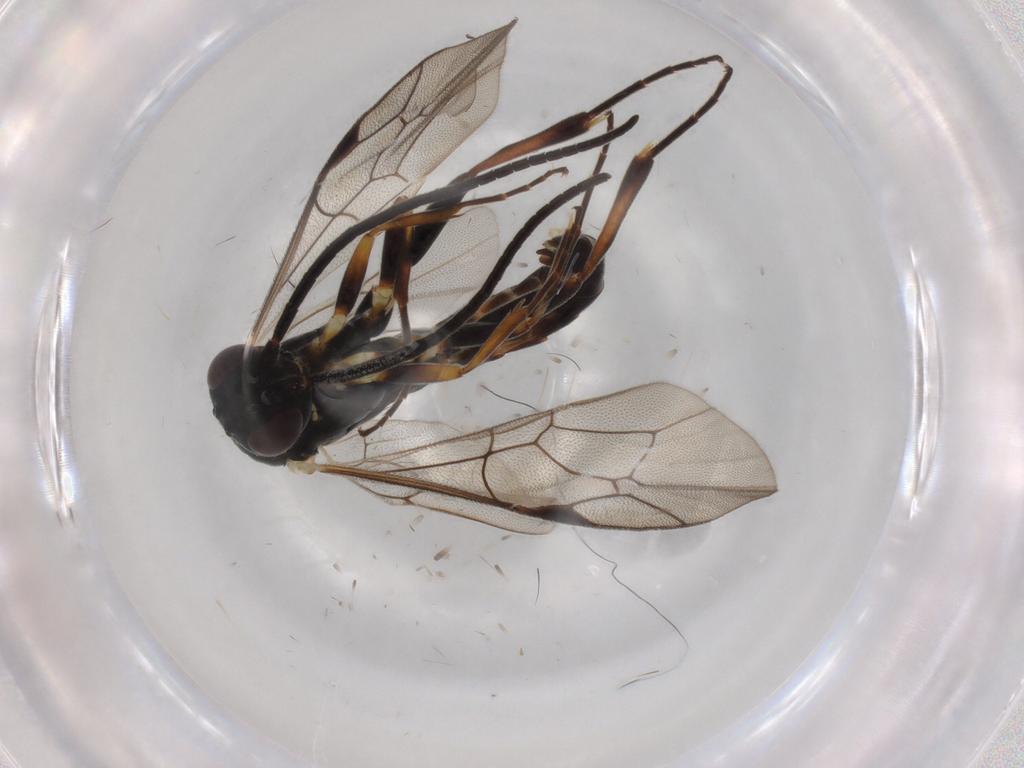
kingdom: Animalia
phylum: Arthropoda
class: Insecta
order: Hymenoptera
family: Ichneumonidae
